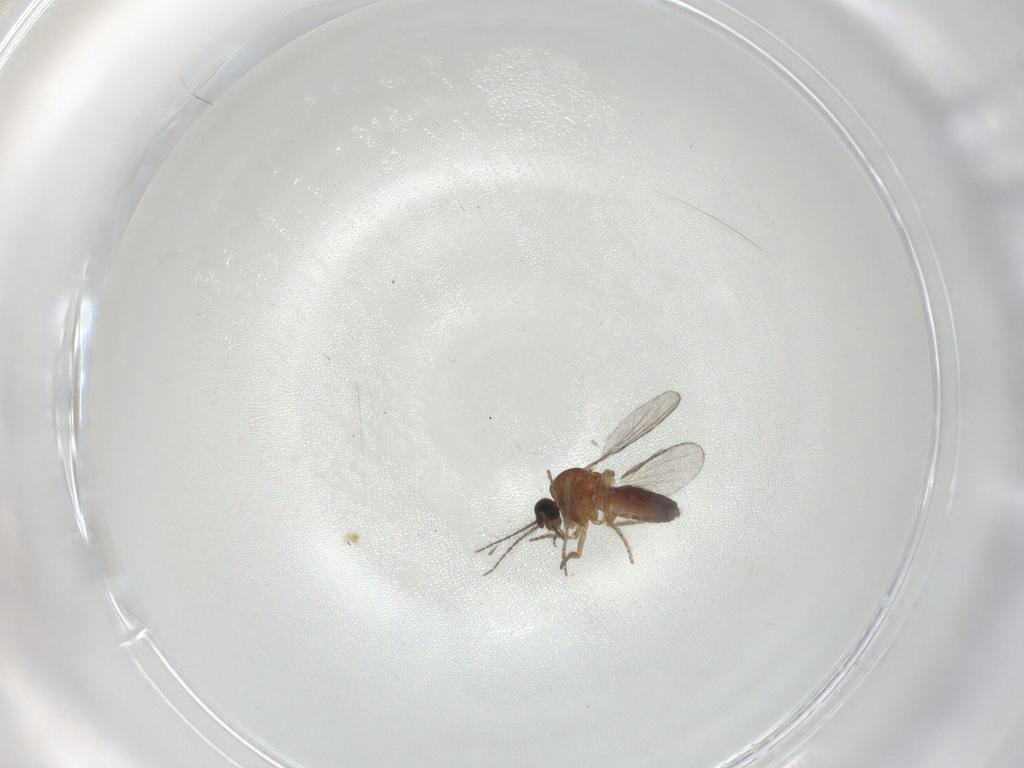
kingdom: Animalia
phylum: Arthropoda
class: Insecta
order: Diptera
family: Ceratopogonidae
